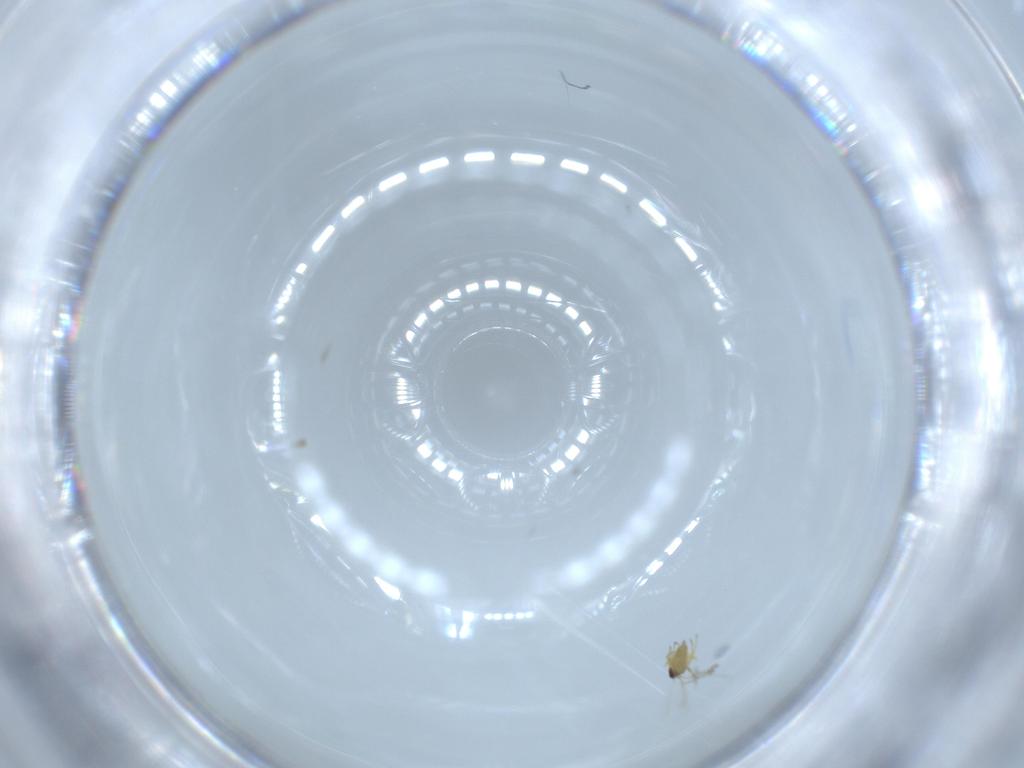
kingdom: Animalia
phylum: Arthropoda
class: Insecta
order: Hymenoptera
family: Mymaridae
